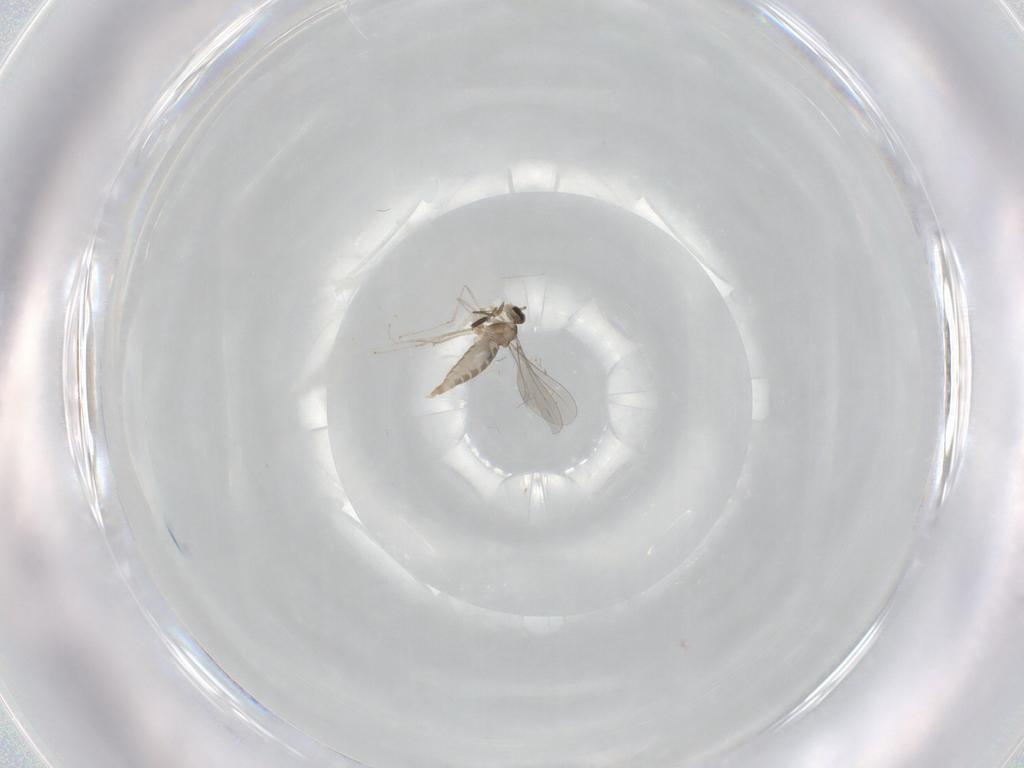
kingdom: Animalia
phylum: Arthropoda
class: Insecta
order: Diptera
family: Sciaridae
